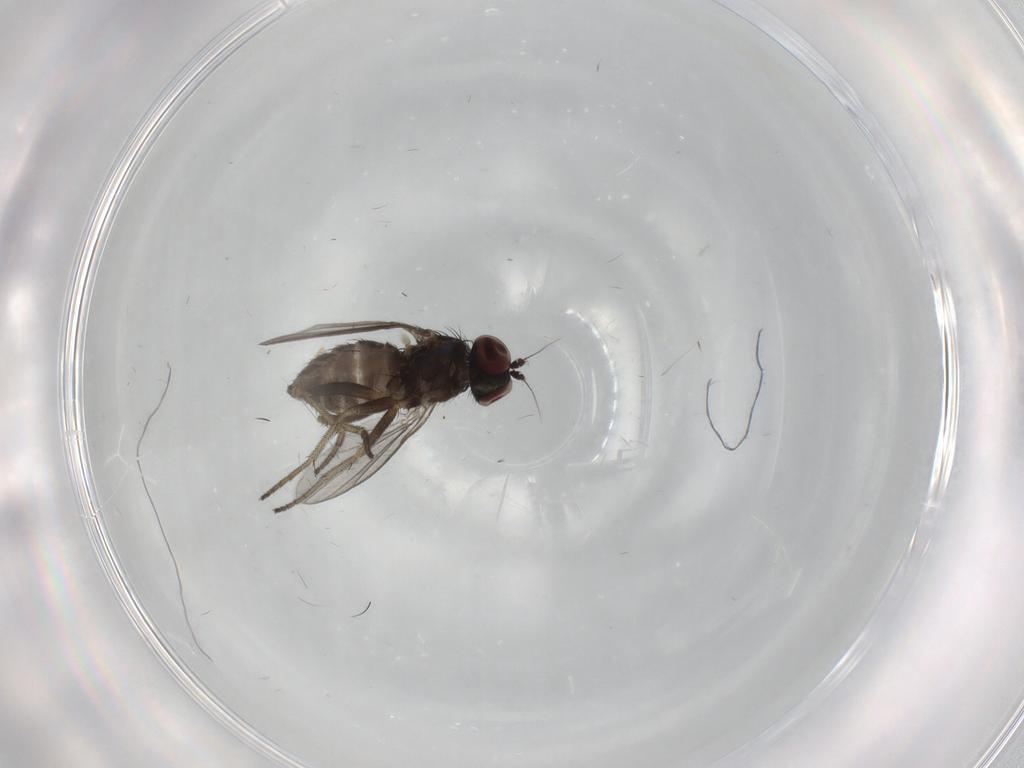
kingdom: Animalia
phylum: Arthropoda
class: Insecta
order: Diptera
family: Dolichopodidae
